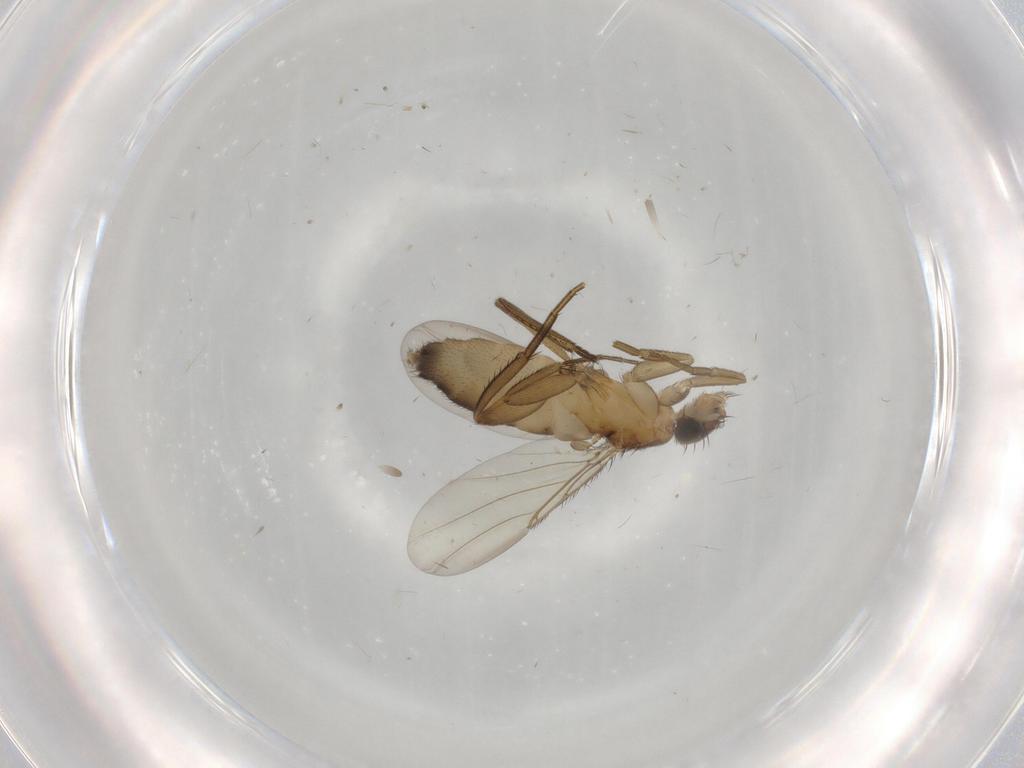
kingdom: Animalia
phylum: Arthropoda
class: Insecta
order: Diptera
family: Phoridae
